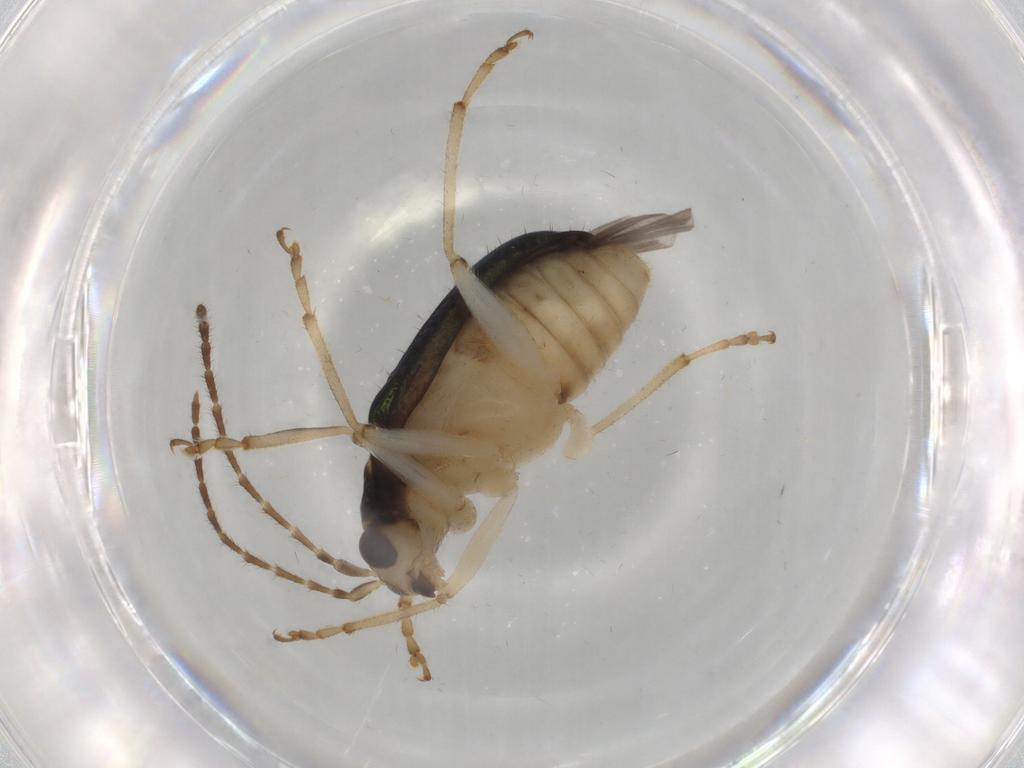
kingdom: Animalia
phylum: Arthropoda
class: Insecta
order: Coleoptera
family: Chrysomelidae
